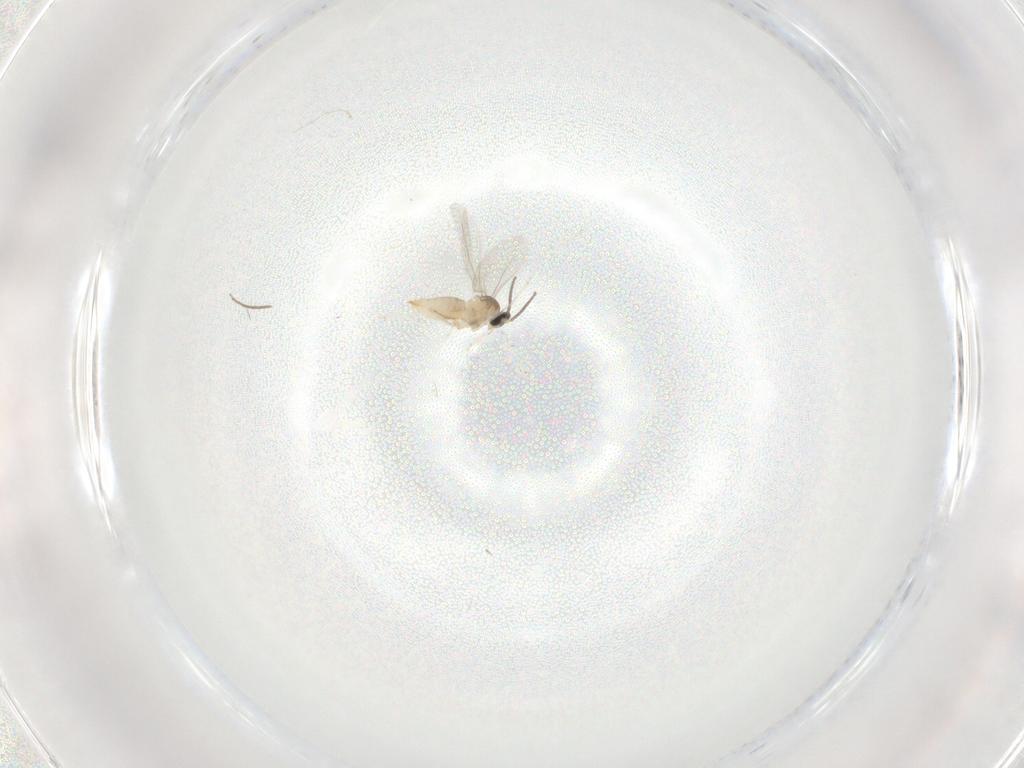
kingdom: Animalia
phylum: Arthropoda
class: Insecta
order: Diptera
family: Cecidomyiidae
